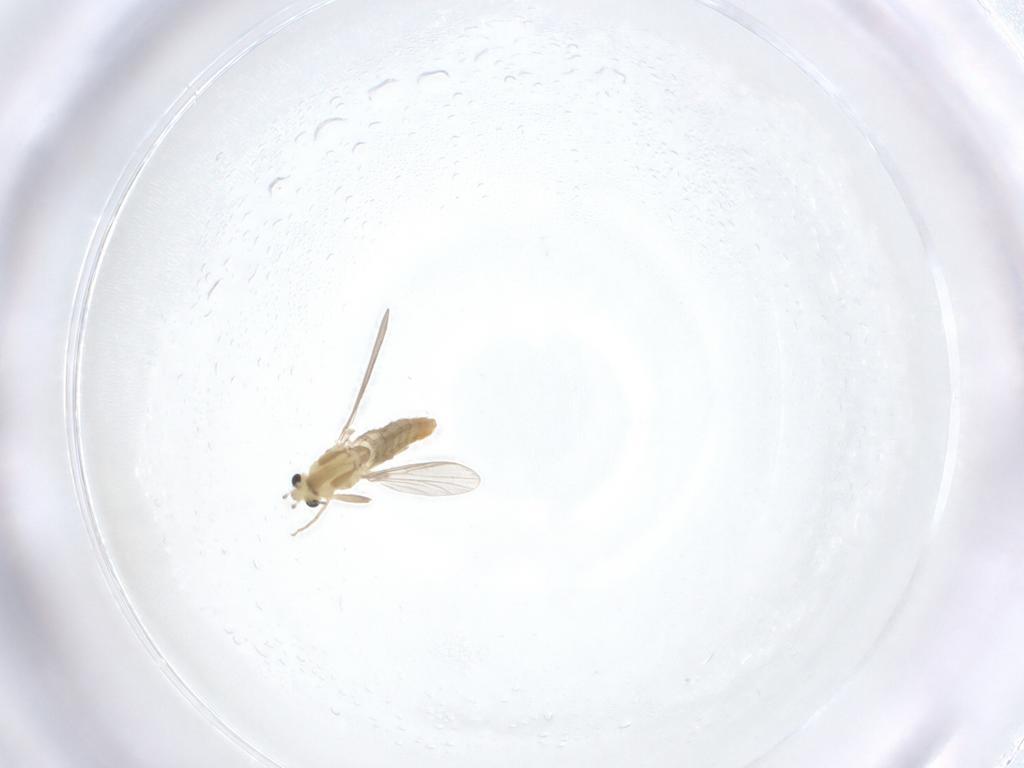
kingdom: Animalia
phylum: Arthropoda
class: Insecta
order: Diptera
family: Chironomidae
